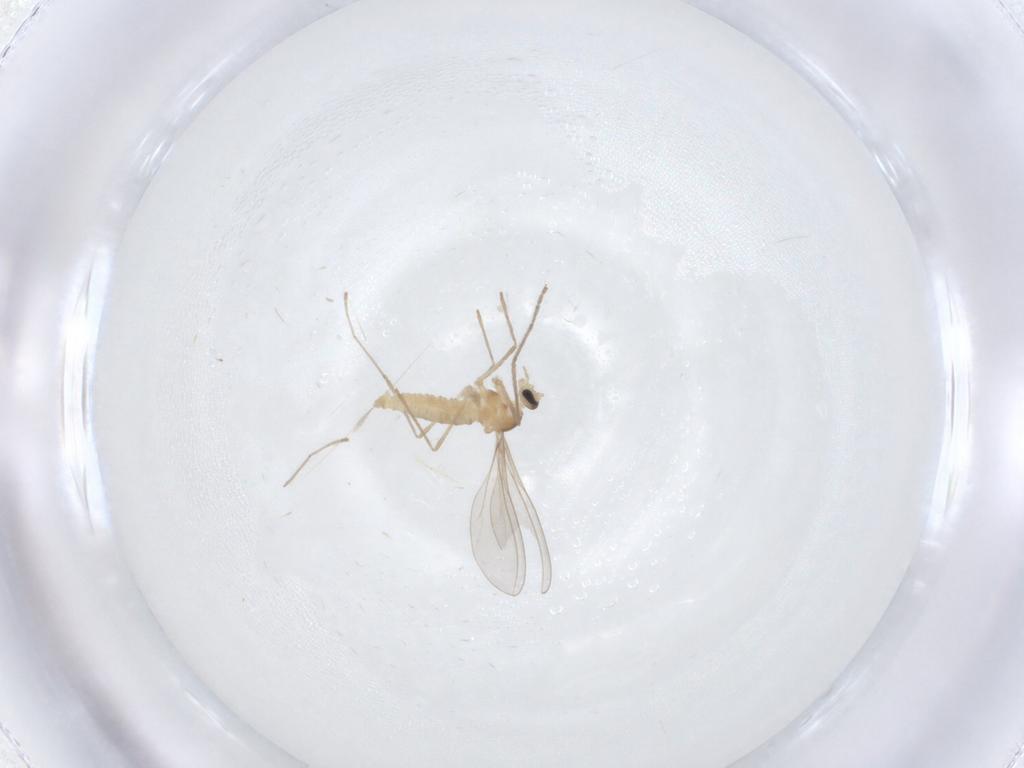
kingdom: Animalia
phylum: Arthropoda
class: Insecta
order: Diptera
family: Cecidomyiidae
